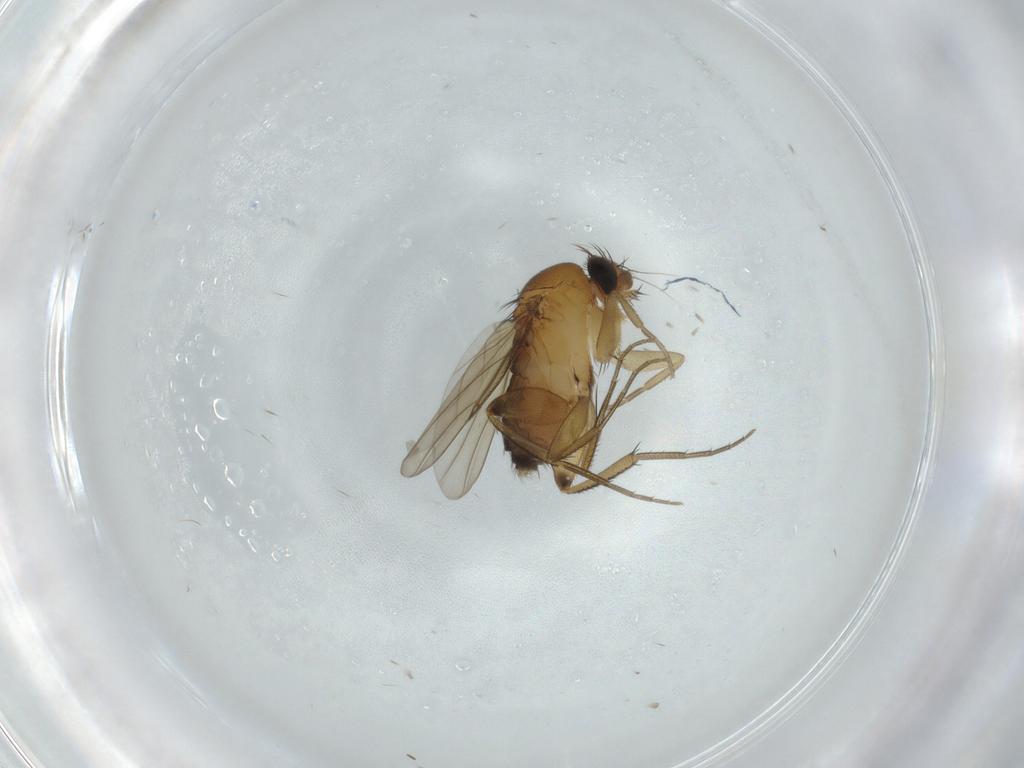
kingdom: Animalia
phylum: Arthropoda
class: Insecta
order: Diptera
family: Phoridae
